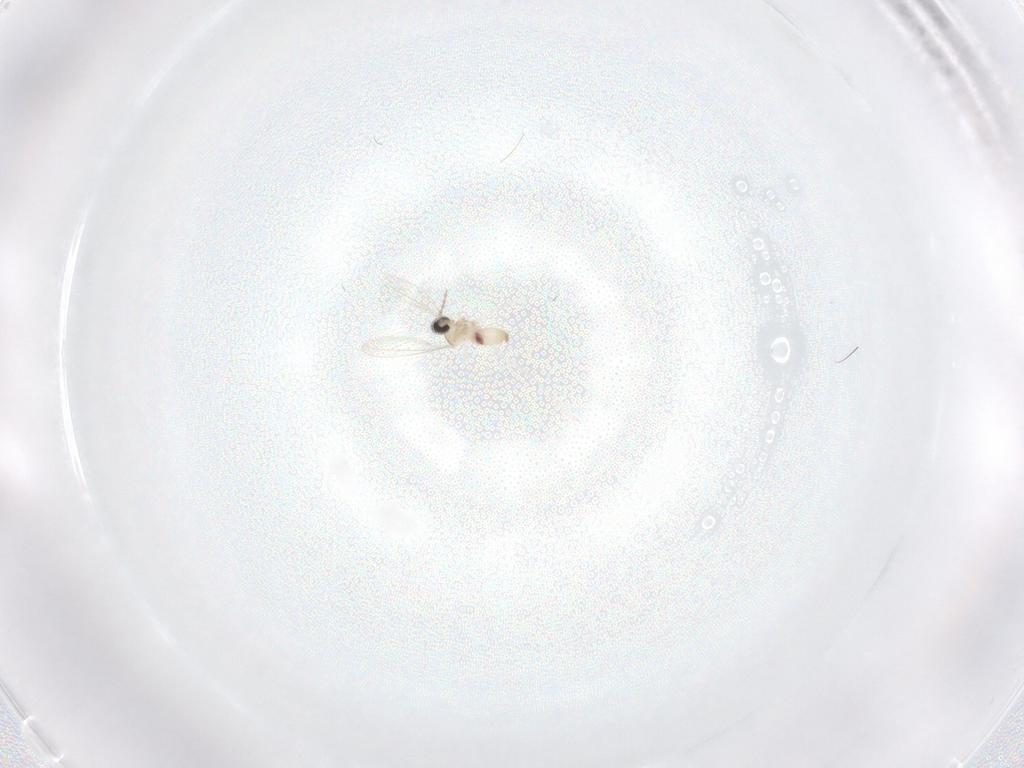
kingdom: Animalia
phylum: Arthropoda
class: Insecta
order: Diptera
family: Cecidomyiidae
